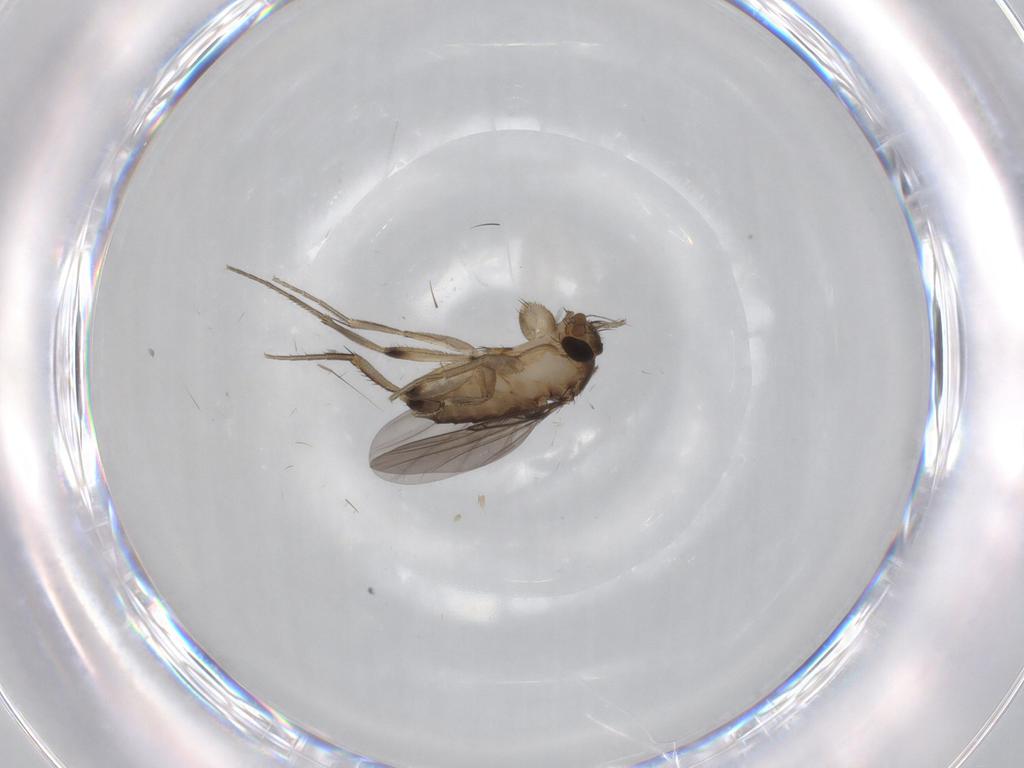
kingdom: Animalia
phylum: Arthropoda
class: Insecta
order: Diptera
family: Phoridae
